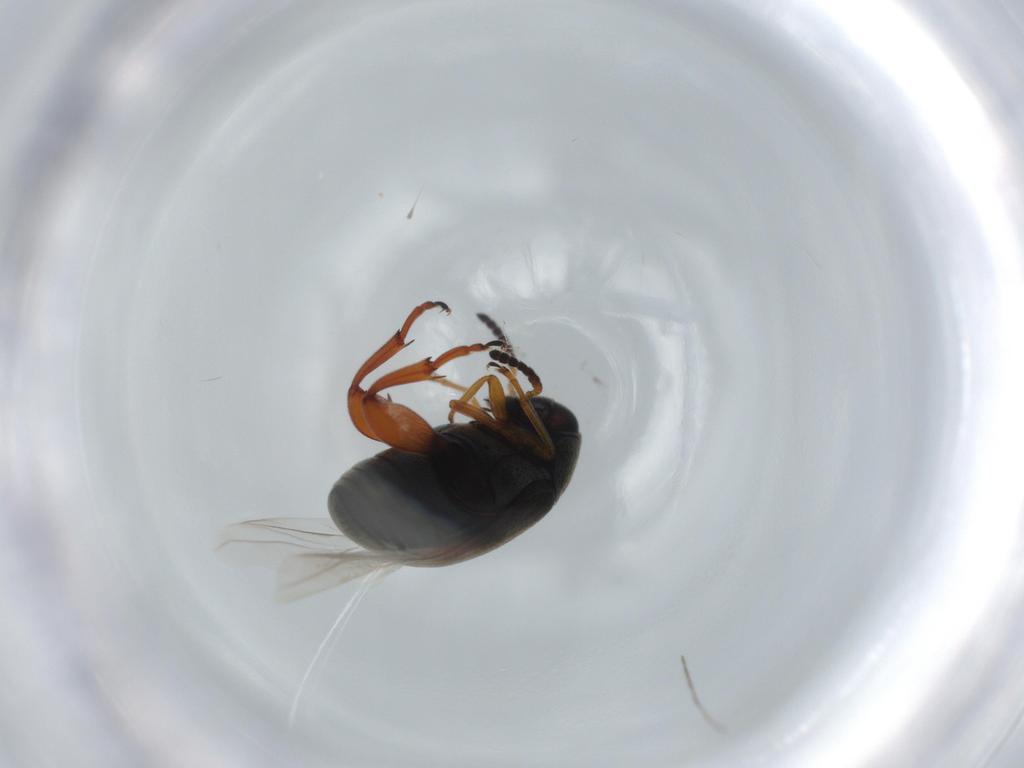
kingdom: Animalia
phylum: Arthropoda
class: Insecta
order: Coleoptera
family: Chrysomelidae
